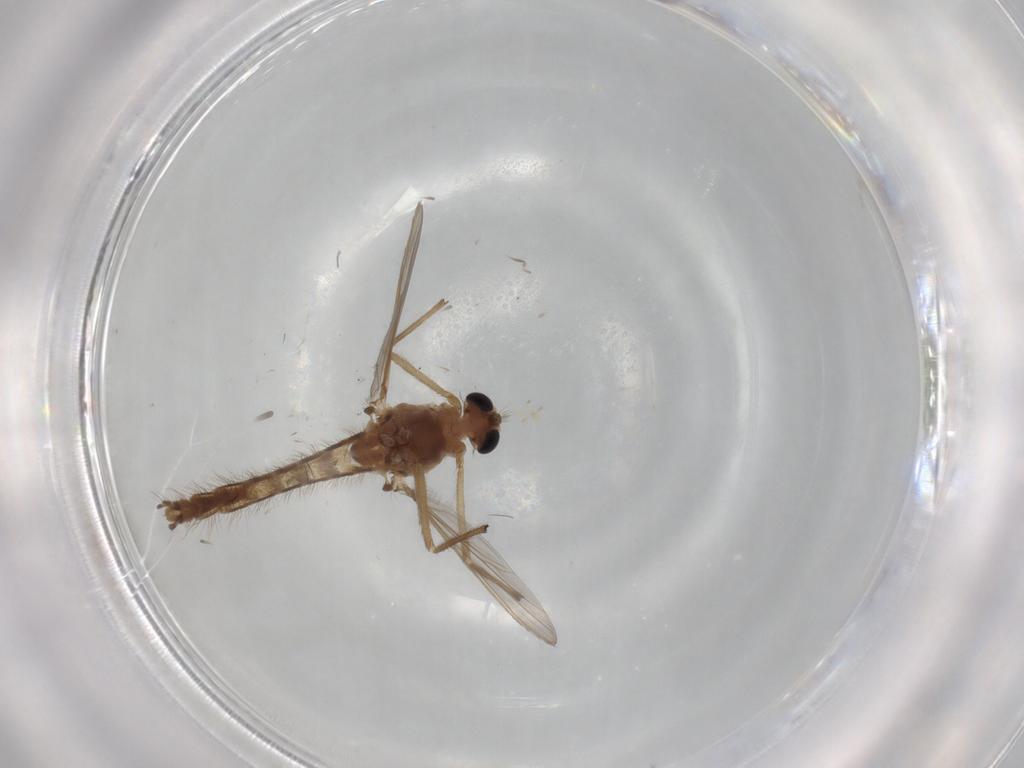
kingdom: Animalia
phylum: Arthropoda
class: Insecta
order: Diptera
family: Chironomidae
